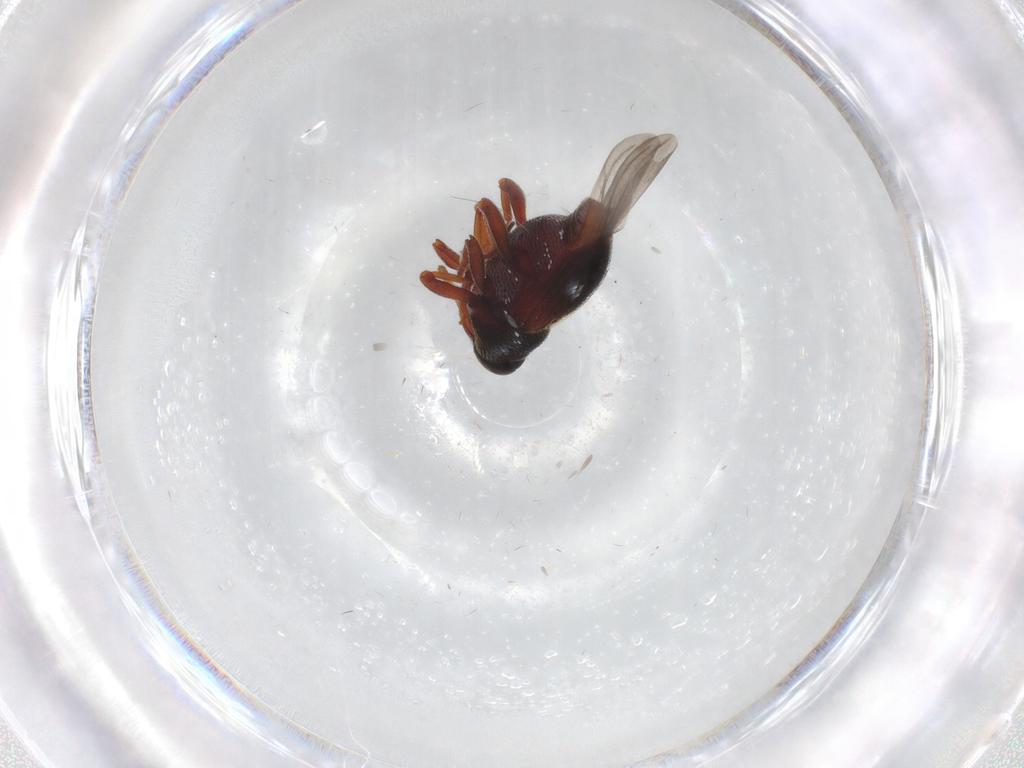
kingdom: Animalia
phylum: Arthropoda
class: Insecta
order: Coleoptera
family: Curculionidae
